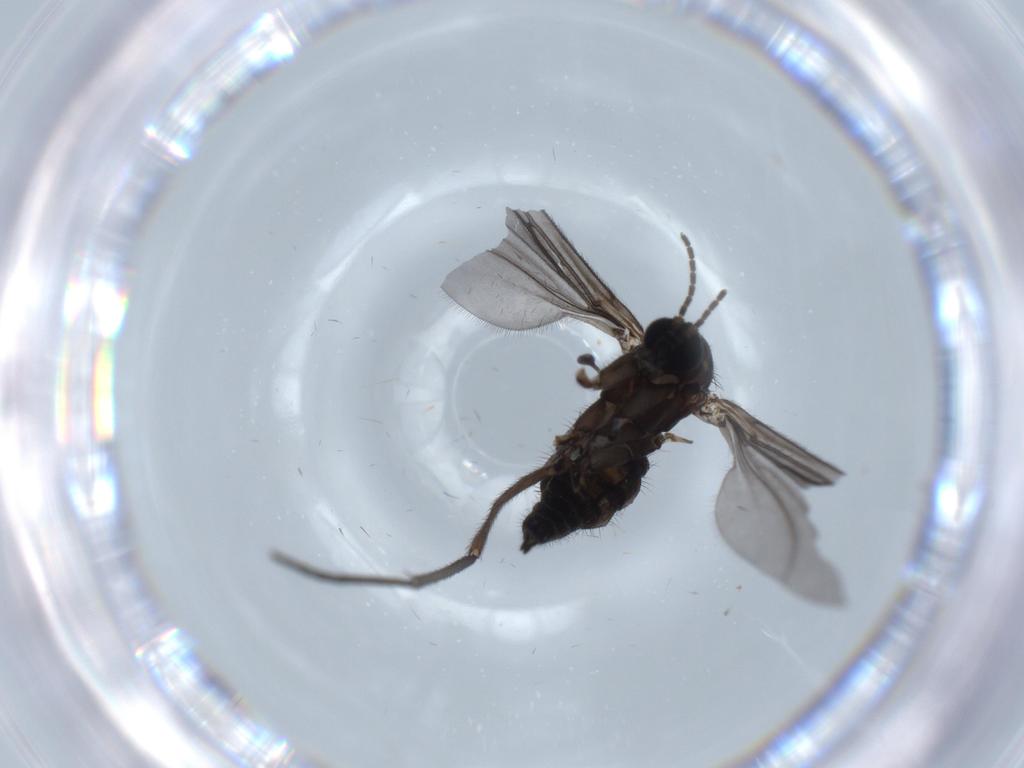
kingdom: Animalia
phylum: Arthropoda
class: Insecta
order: Diptera
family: Sciaridae
